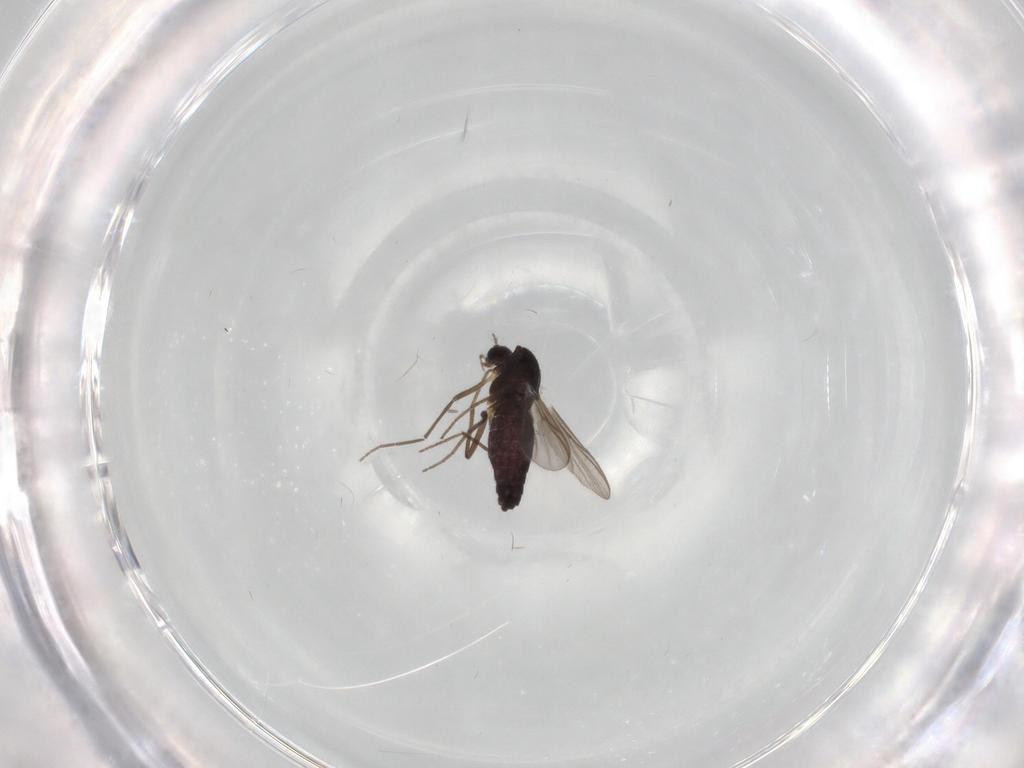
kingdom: Animalia
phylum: Arthropoda
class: Insecta
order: Diptera
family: Chironomidae
